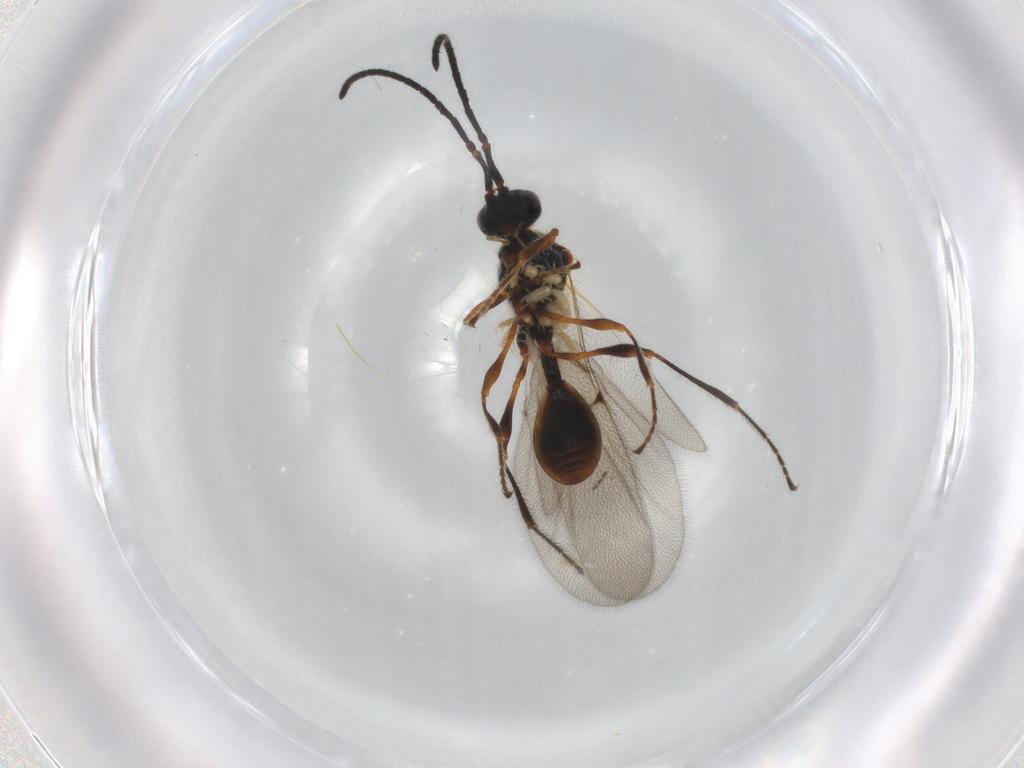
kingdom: Animalia
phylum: Arthropoda
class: Insecta
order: Hymenoptera
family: Diapriidae
